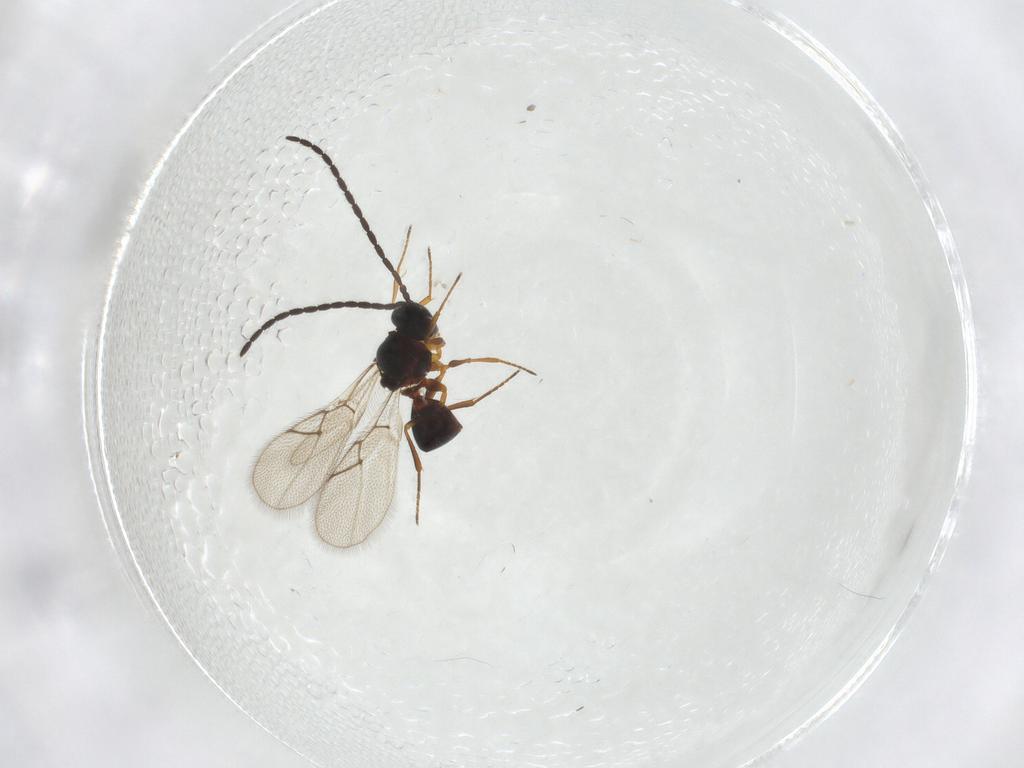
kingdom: Animalia
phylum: Arthropoda
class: Insecta
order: Hymenoptera
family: Figitidae
